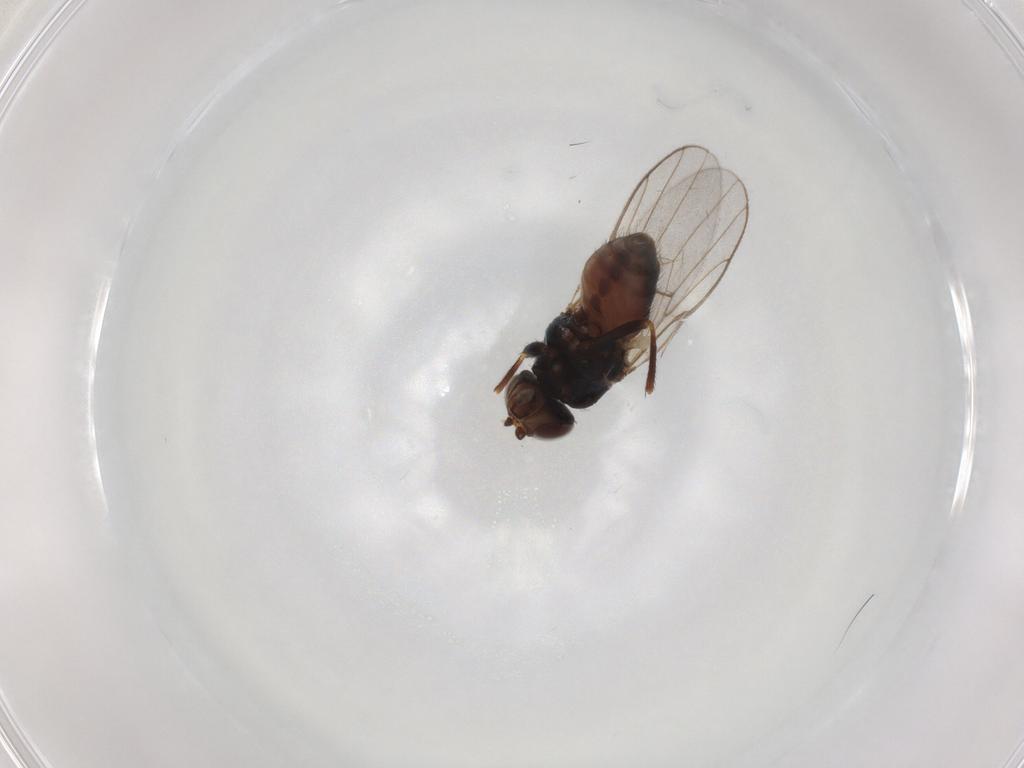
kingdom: Animalia
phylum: Arthropoda
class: Insecta
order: Diptera
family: Chloropidae
